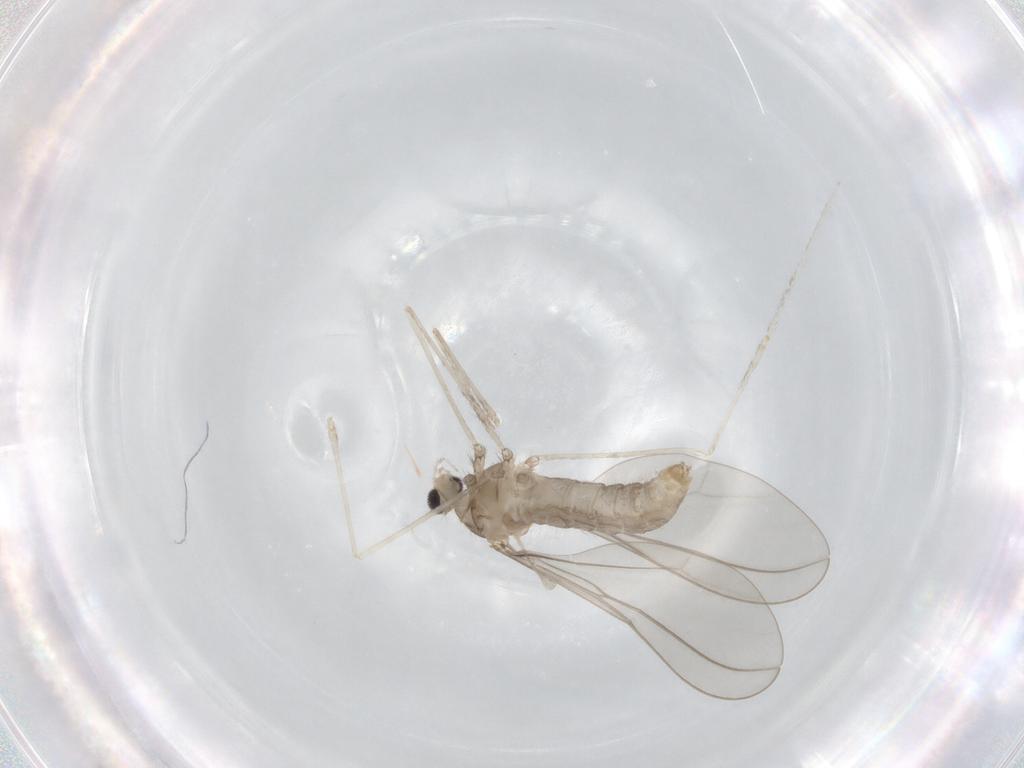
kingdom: Animalia
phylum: Arthropoda
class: Insecta
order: Diptera
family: Cecidomyiidae
